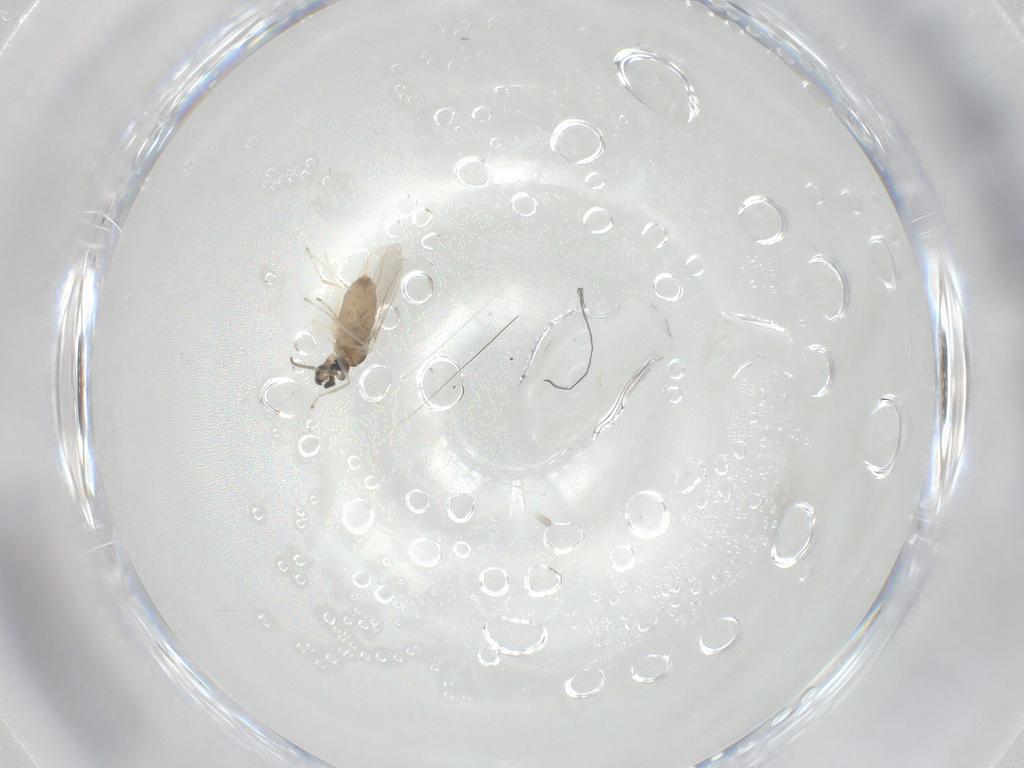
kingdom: Animalia
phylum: Arthropoda
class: Insecta
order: Diptera
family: Cecidomyiidae
